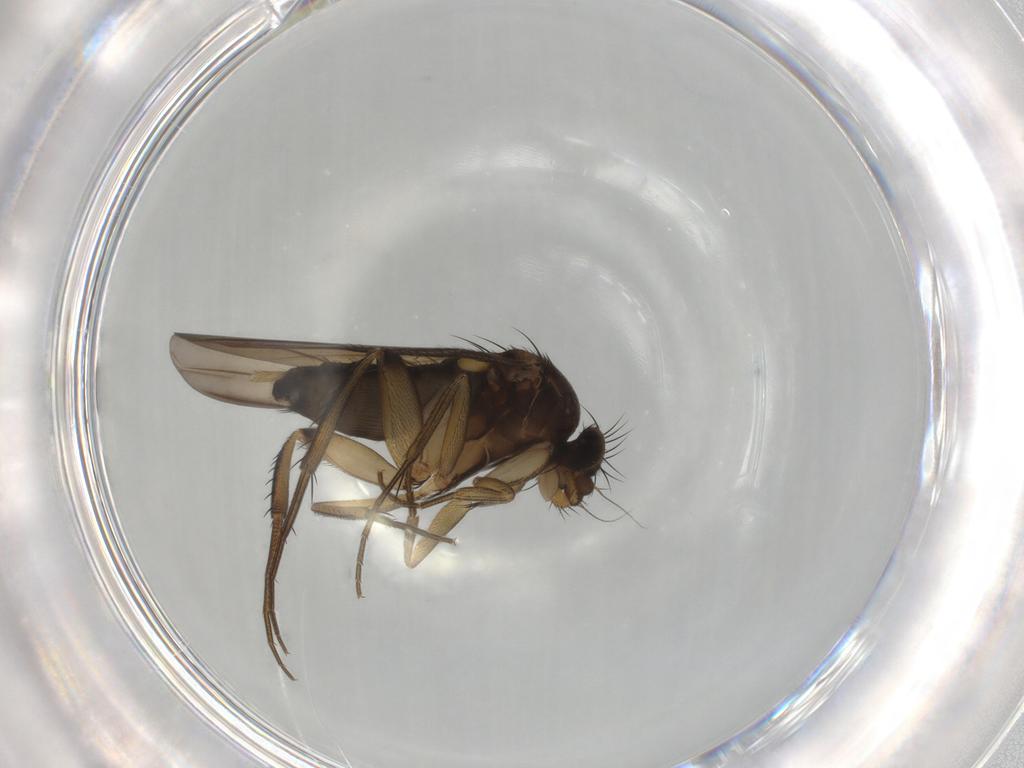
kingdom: Animalia
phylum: Arthropoda
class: Insecta
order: Diptera
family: Phoridae
